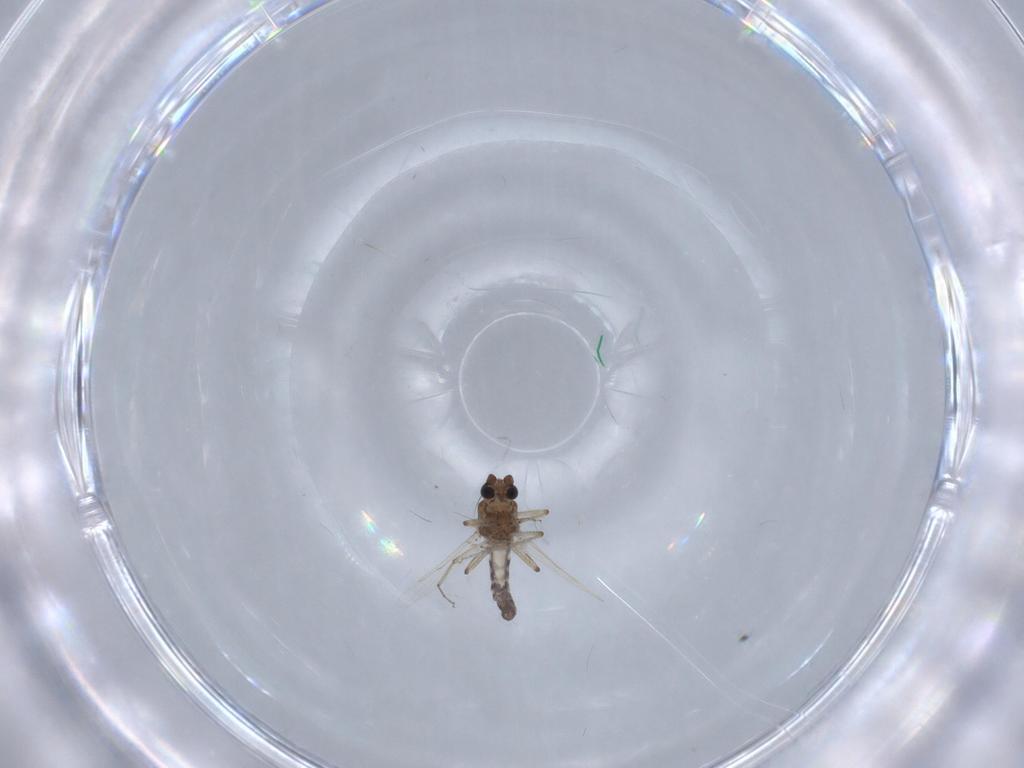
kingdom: Animalia
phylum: Arthropoda
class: Insecta
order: Diptera
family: Ceratopogonidae
